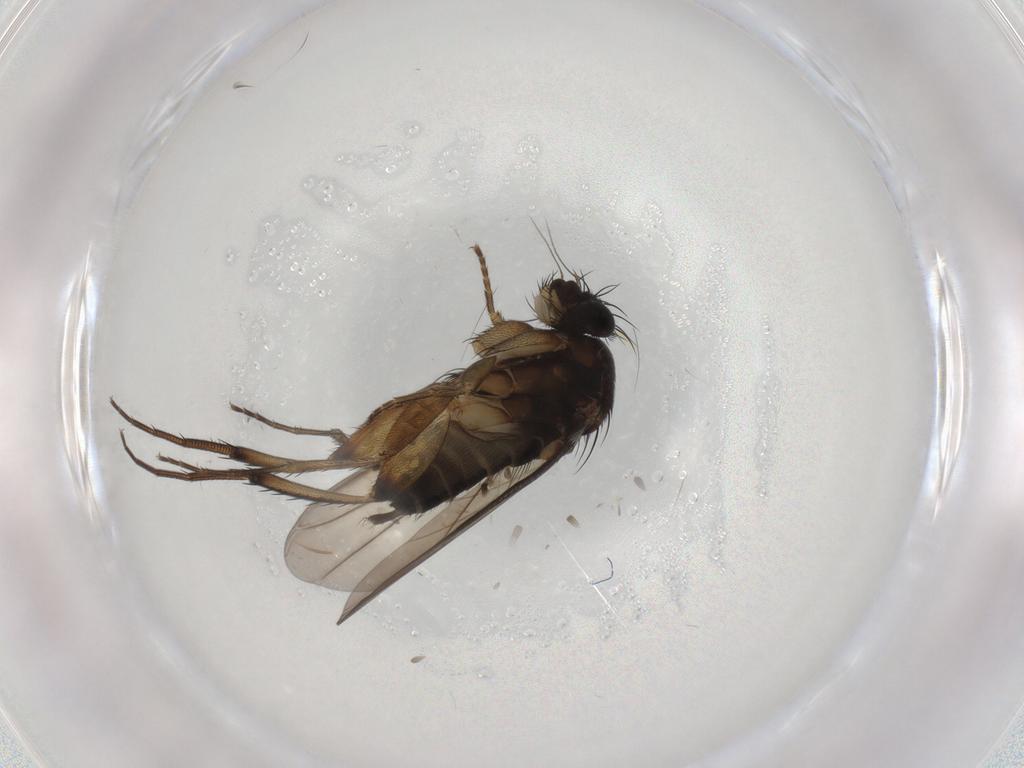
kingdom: Animalia
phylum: Arthropoda
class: Insecta
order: Diptera
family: Phoridae
